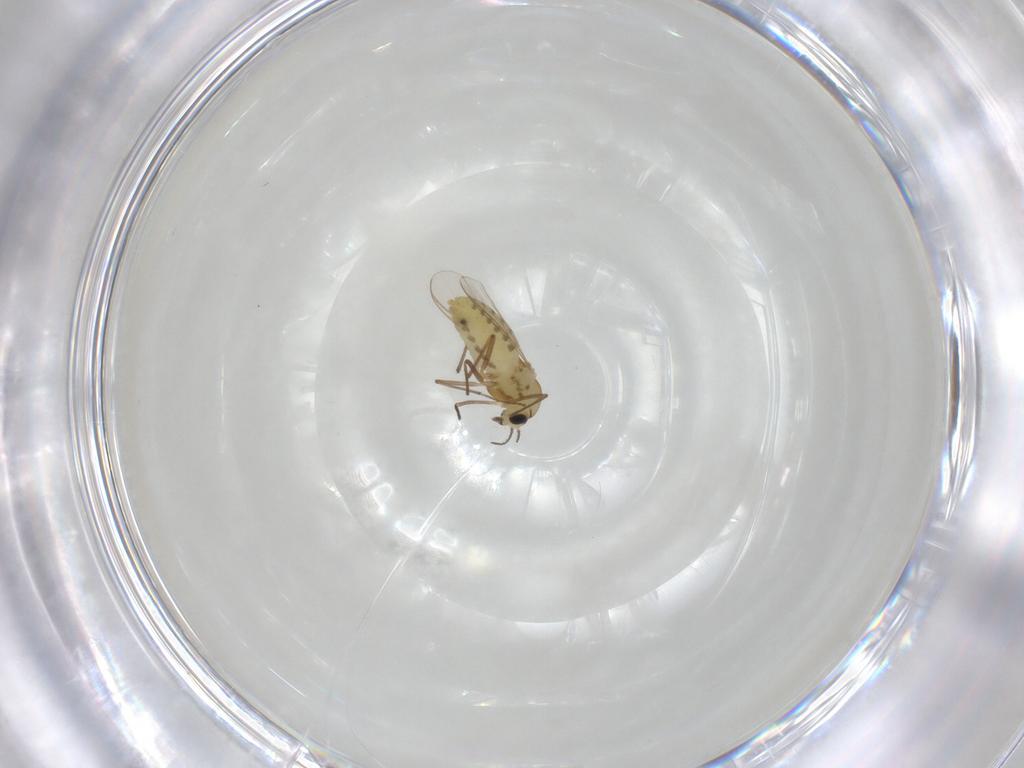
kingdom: Animalia
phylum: Arthropoda
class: Insecta
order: Diptera
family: Chironomidae
